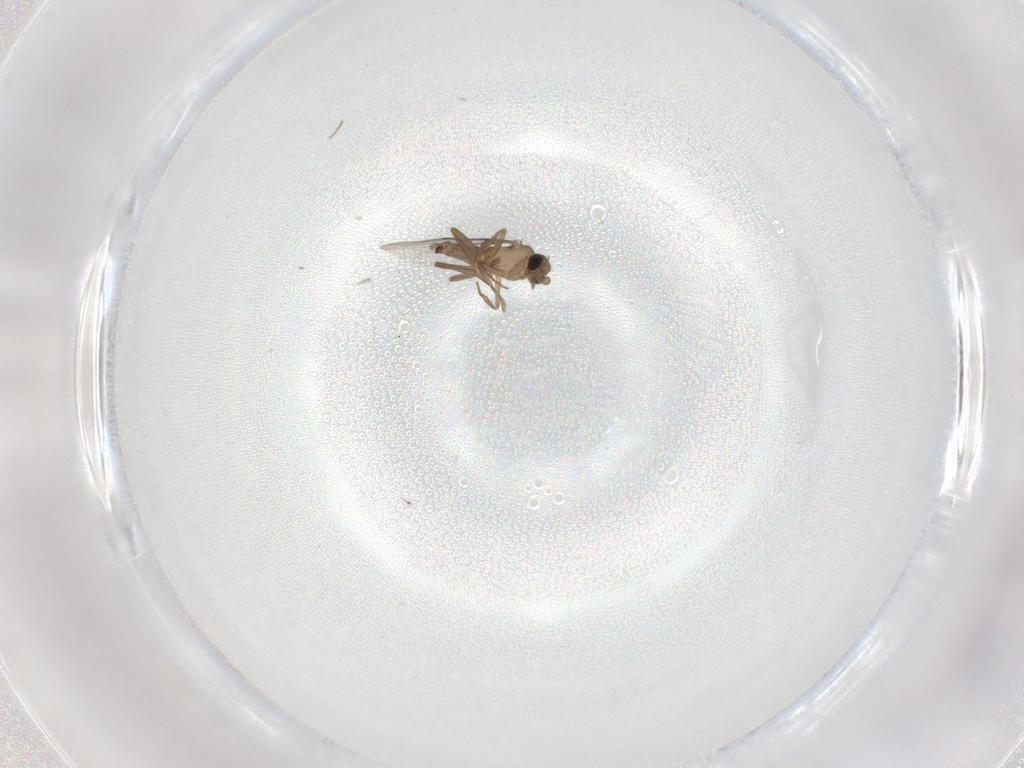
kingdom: Animalia
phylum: Arthropoda
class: Insecta
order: Diptera
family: Cecidomyiidae
